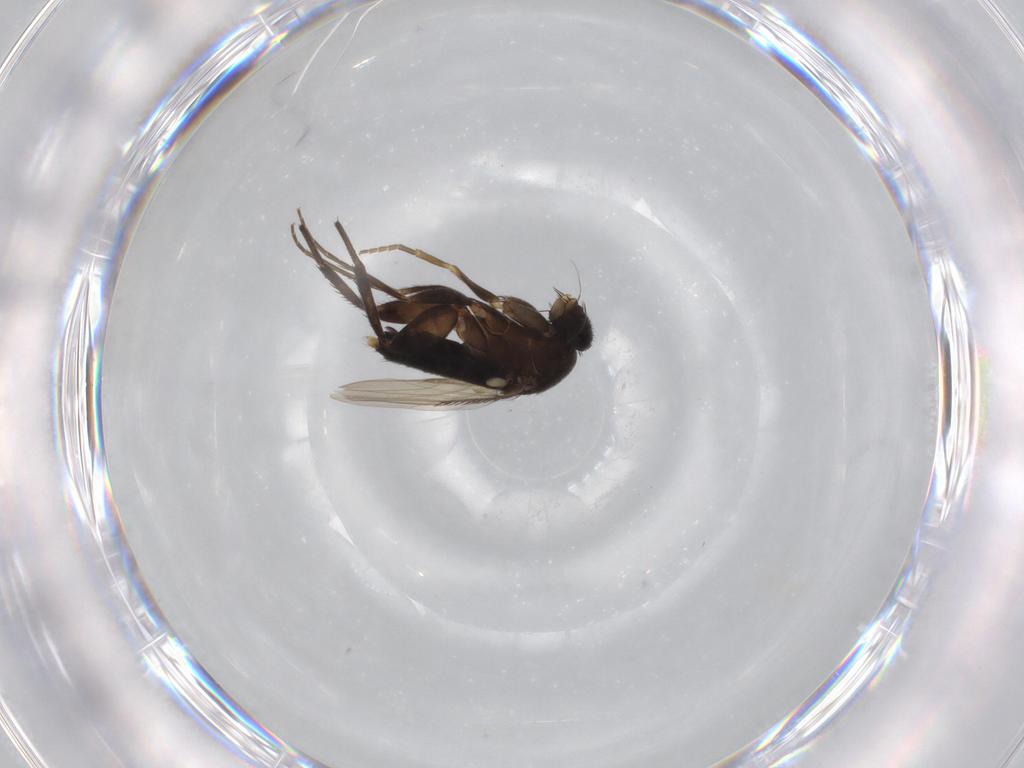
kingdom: Animalia
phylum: Arthropoda
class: Insecta
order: Diptera
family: Phoridae
